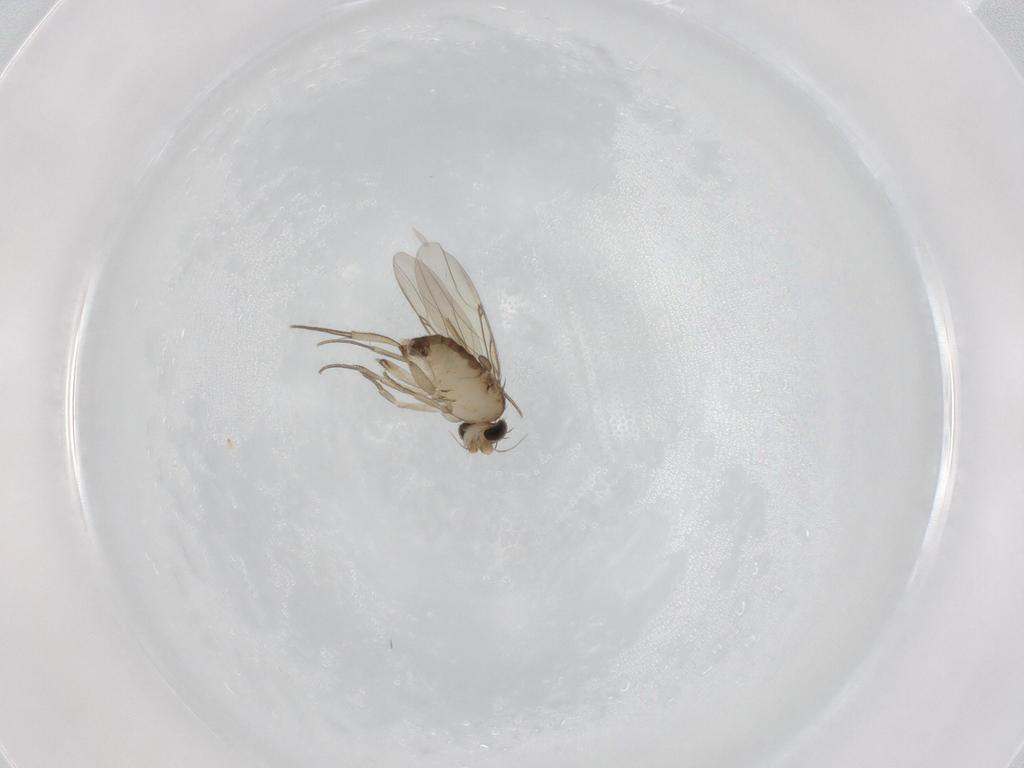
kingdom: Animalia
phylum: Arthropoda
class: Insecta
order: Diptera
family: Phoridae
